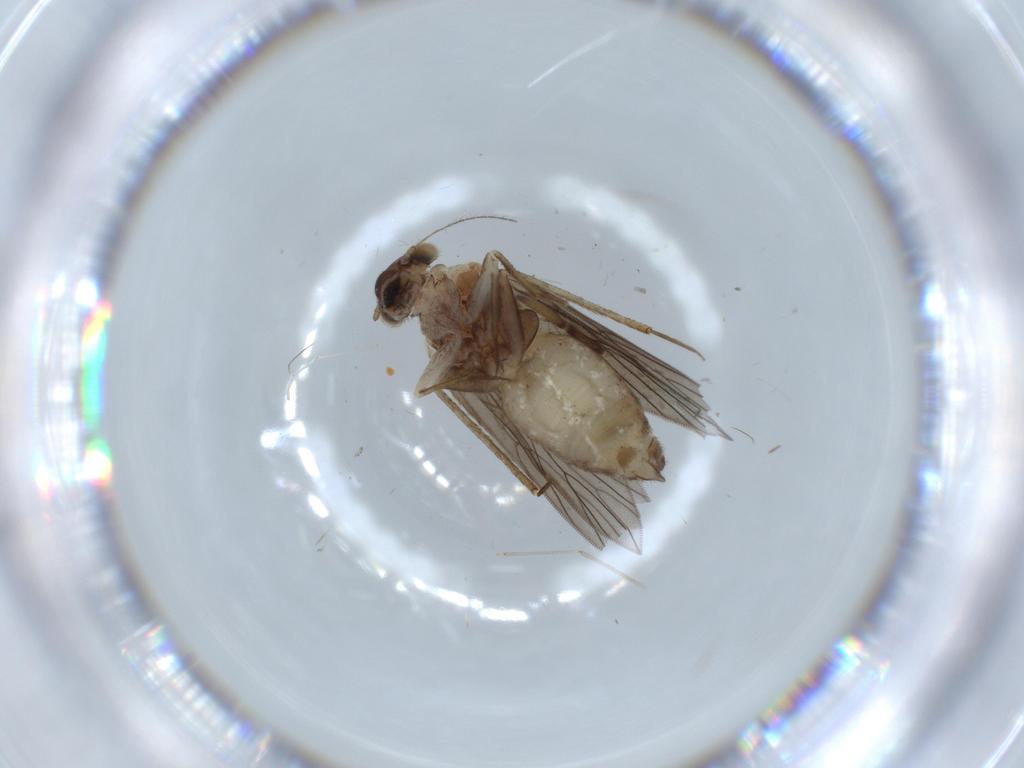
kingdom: Animalia
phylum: Arthropoda
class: Insecta
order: Psocodea
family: Lepidopsocidae
